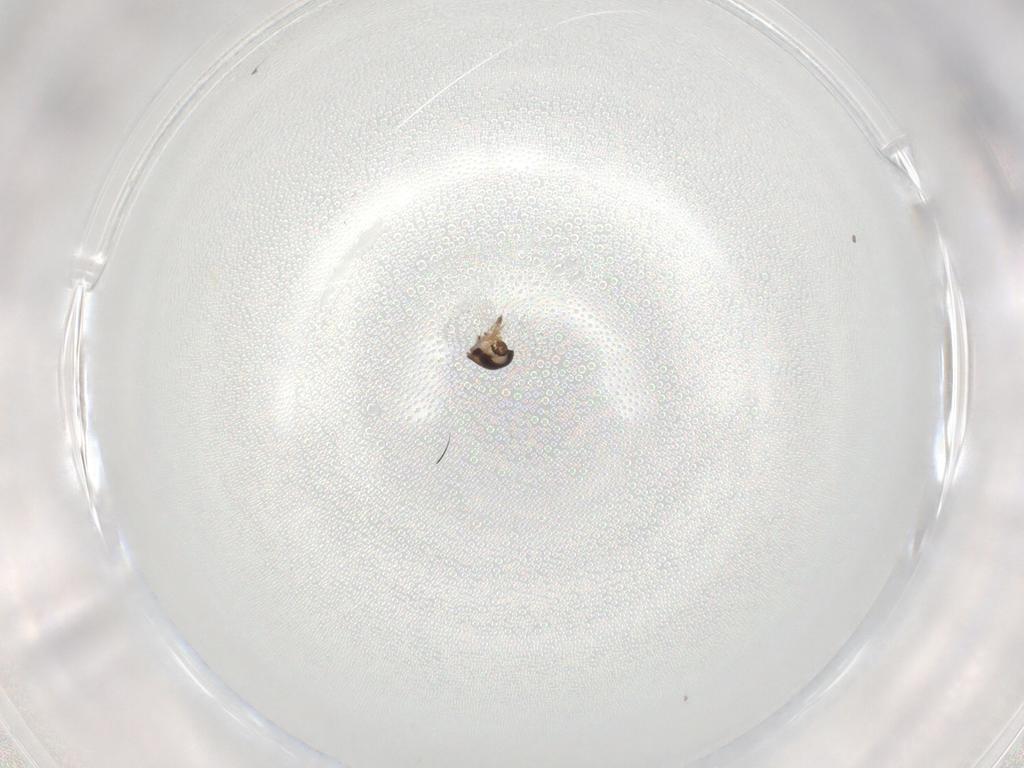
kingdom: Animalia
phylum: Arthropoda
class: Insecta
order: Diptera
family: Ceratopogonidae
